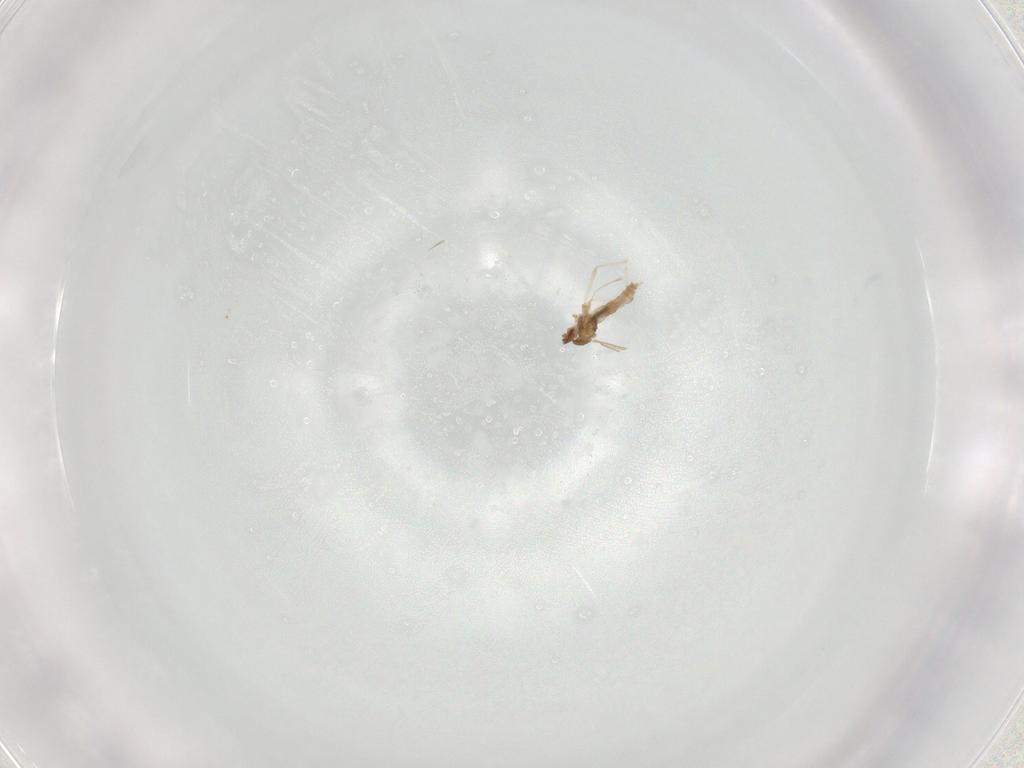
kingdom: Animalia
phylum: Arthropoda
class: Insecta
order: Diptera
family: Cecidomyiidae
